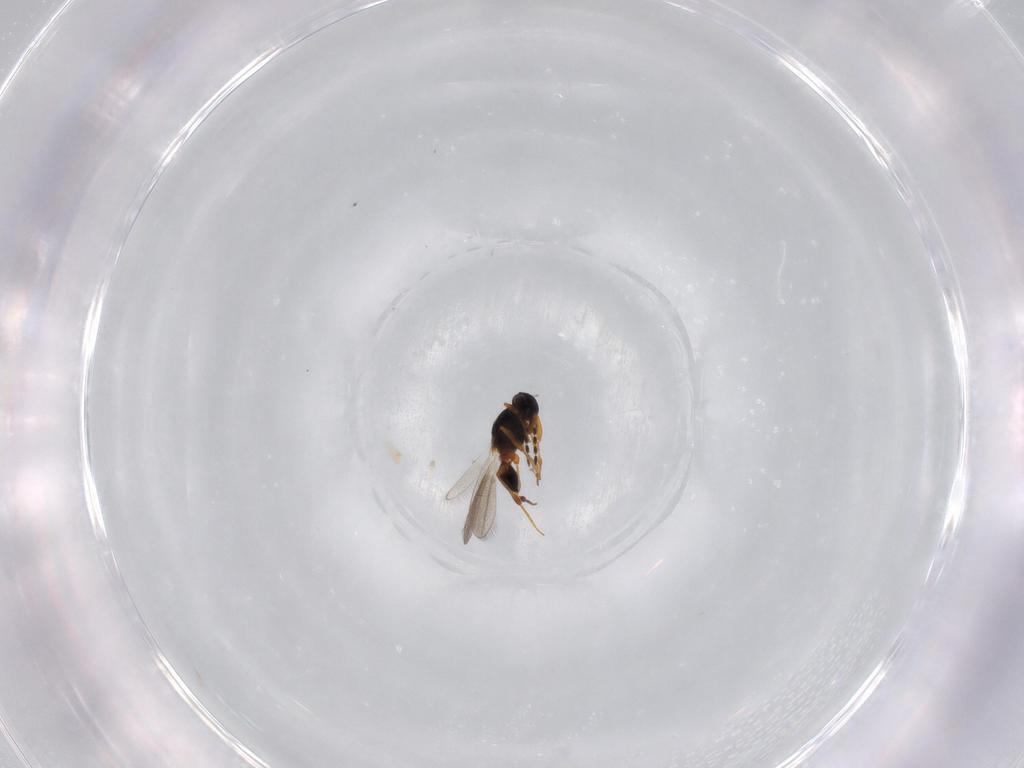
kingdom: Animalia
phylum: Arthropoda
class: Insecta
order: Hymenoptera
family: Platygastridae
